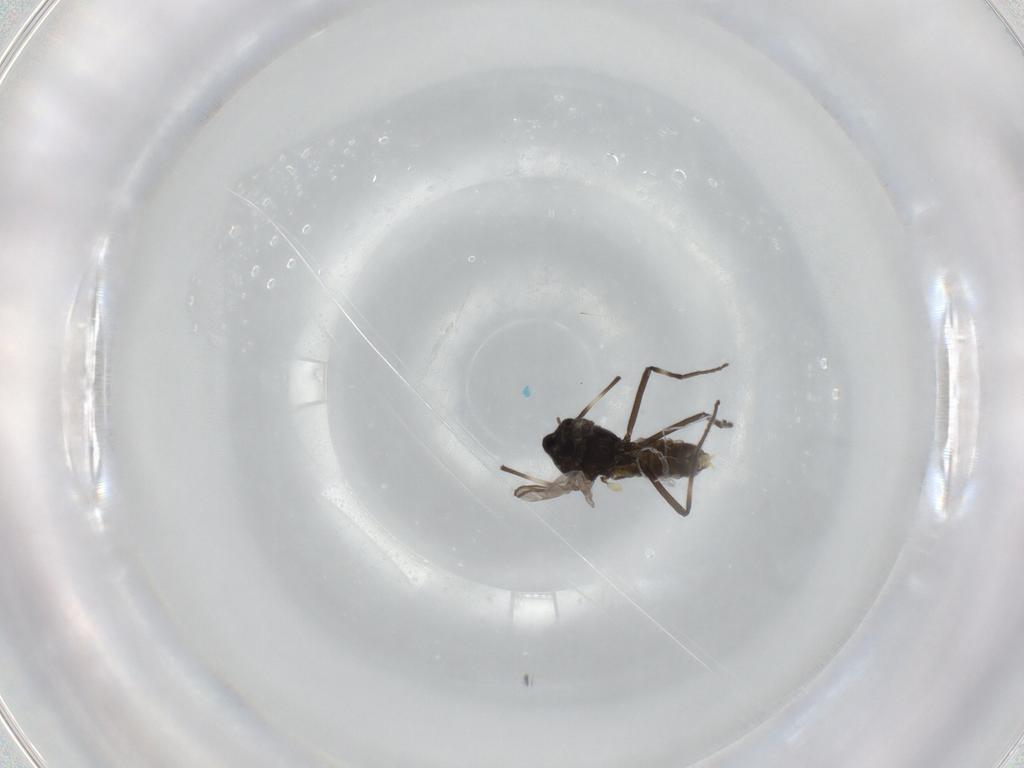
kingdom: Animalia
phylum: Arthropoda
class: Insecta
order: Diptera
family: Chironomidae
